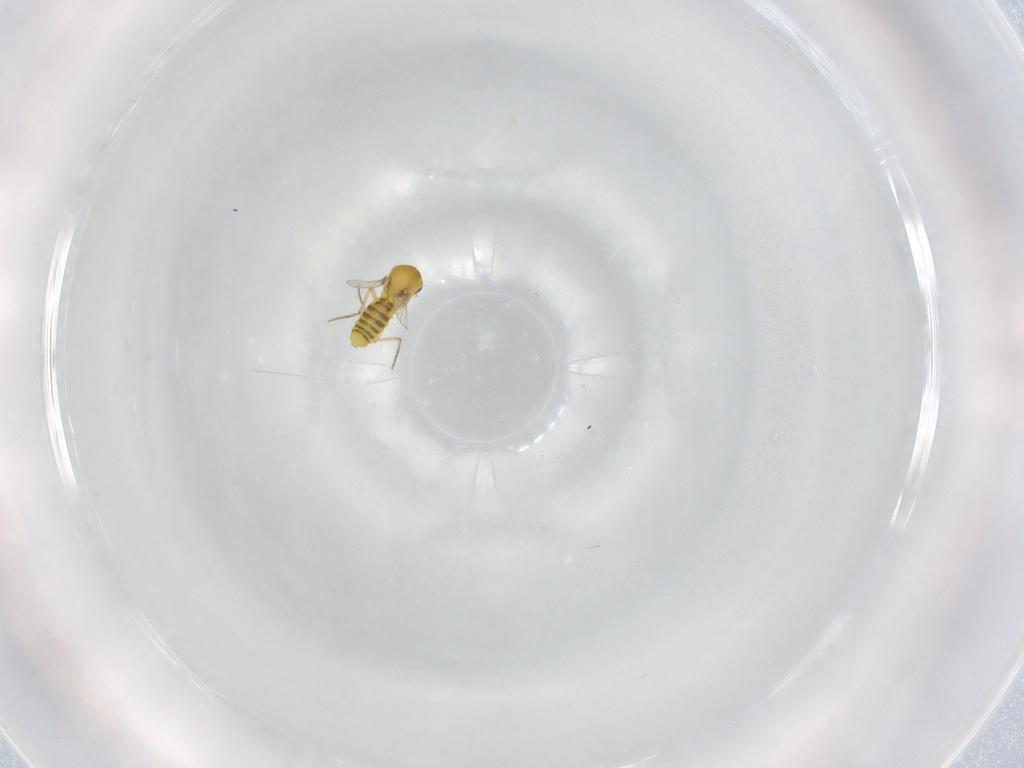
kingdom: Animalia
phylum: Arthropoda
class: Insecta
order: Diptera
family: Ceratopogonidae
